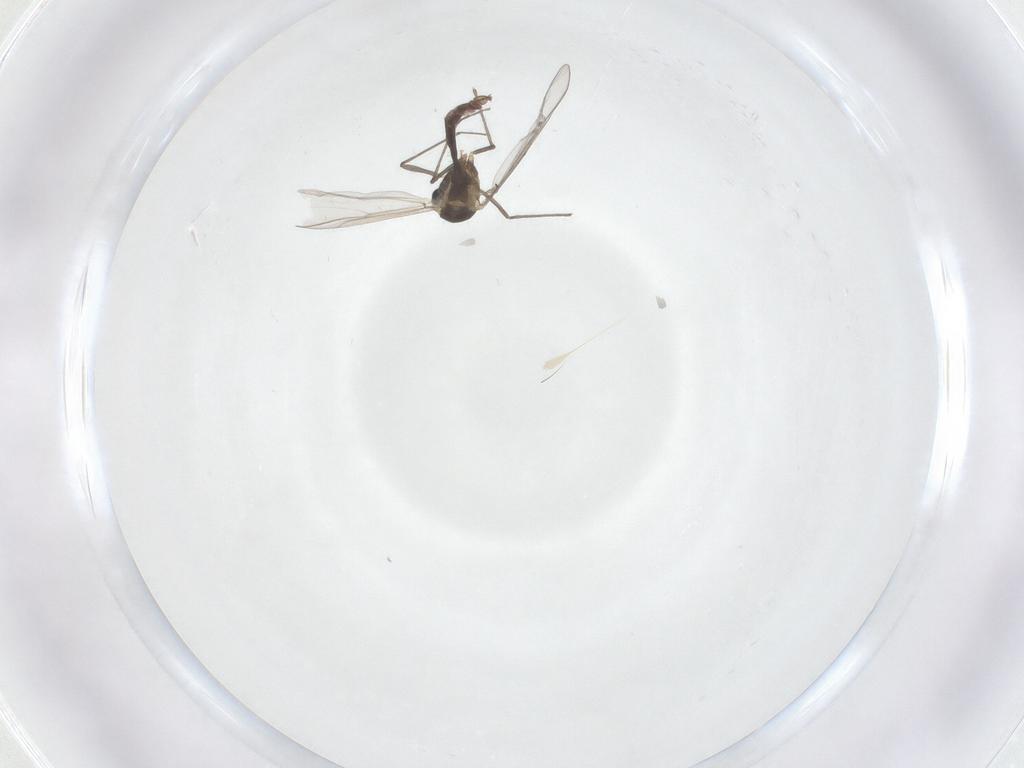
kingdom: Animalia
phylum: Arthropoda
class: Insecta
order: Diptera
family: Chironomidae
